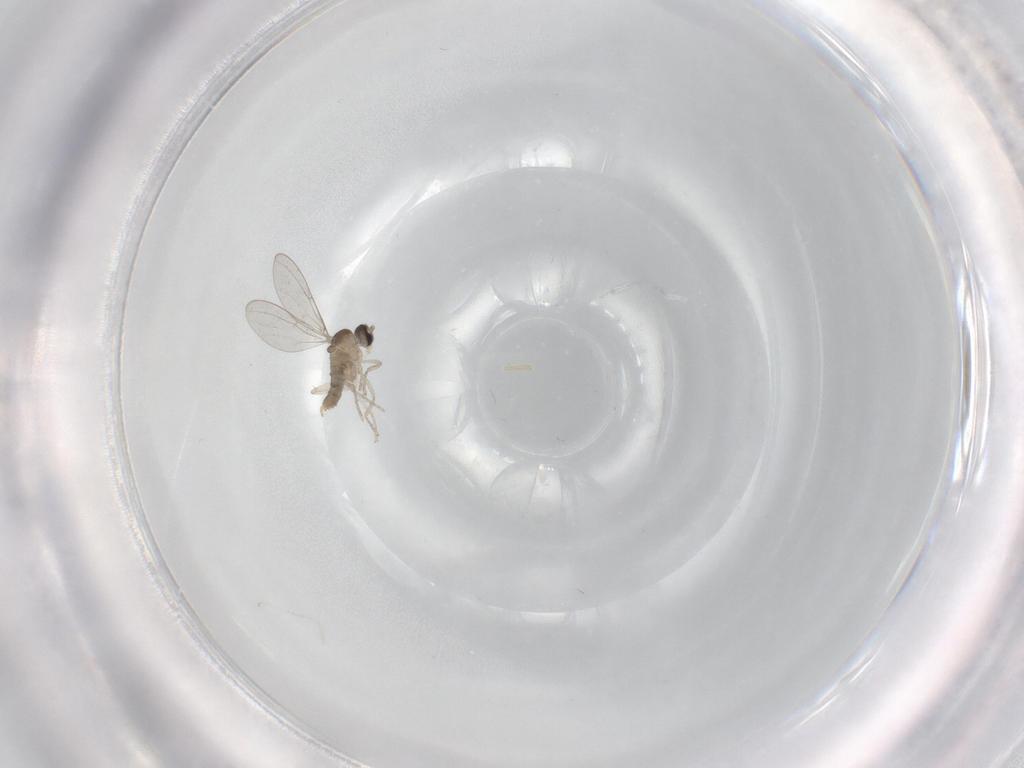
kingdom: Animalia
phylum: Arthropoda
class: Insecta
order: Diptera
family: Cecidomyiidae
